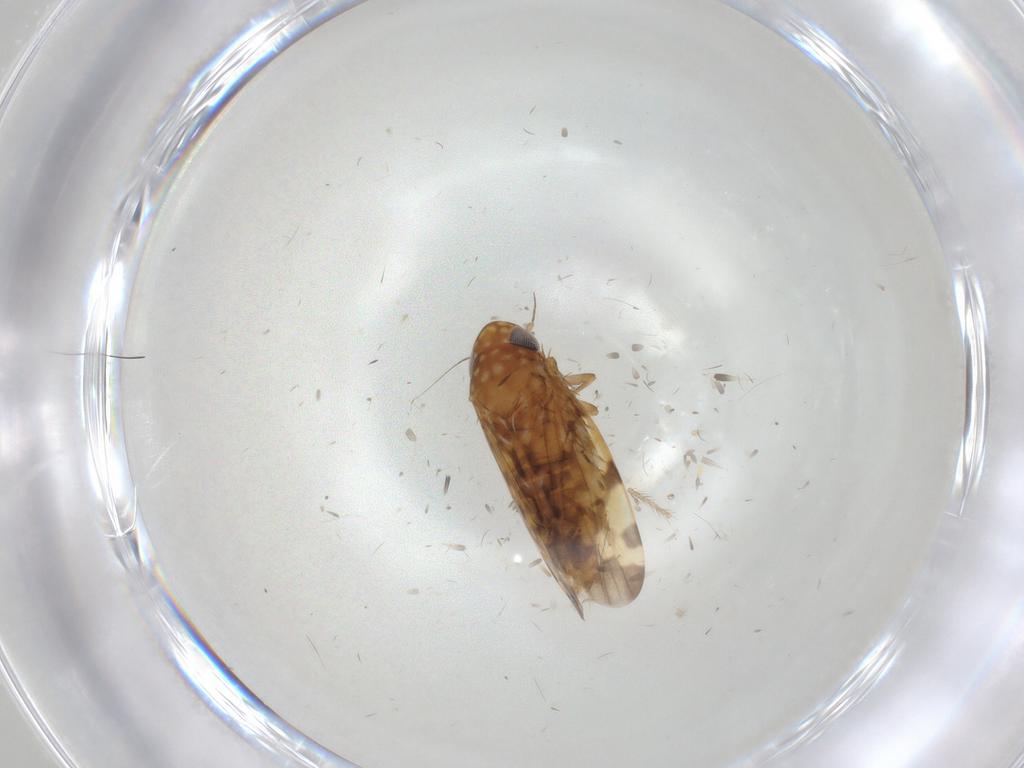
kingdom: Animalia
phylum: Arthropoda
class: Insecta
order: Hemiptera
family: Cicadellidae
